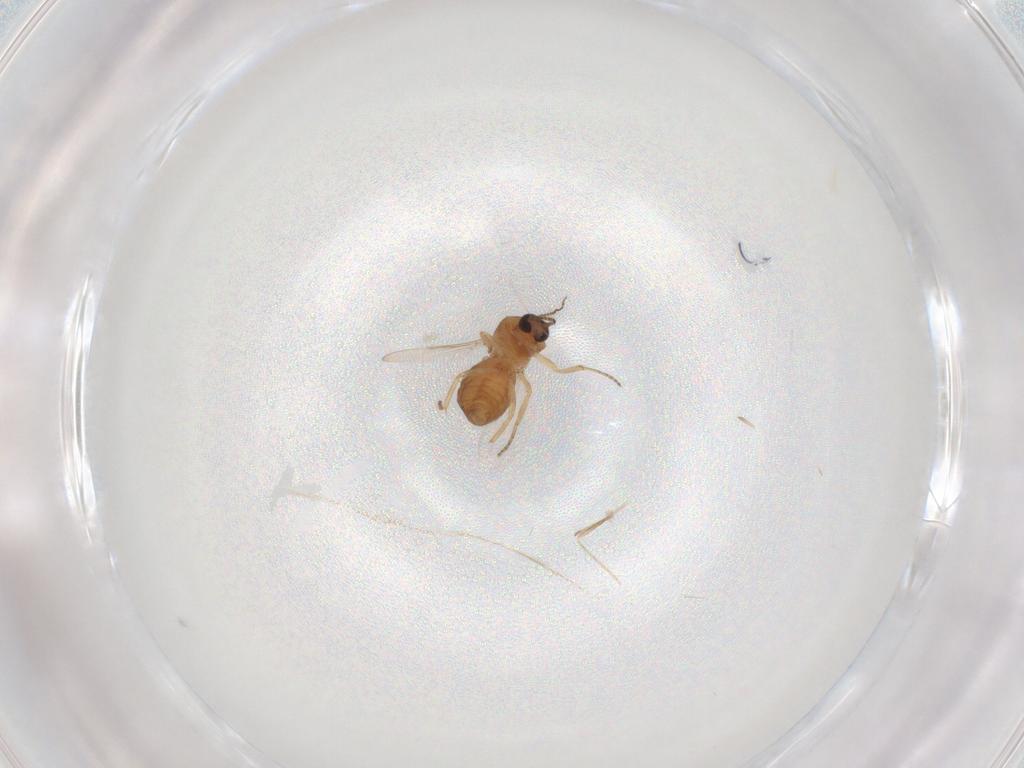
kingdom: Animalia
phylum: Arthropoda
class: Insecta
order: Diptera
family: Ceratopogonidae
